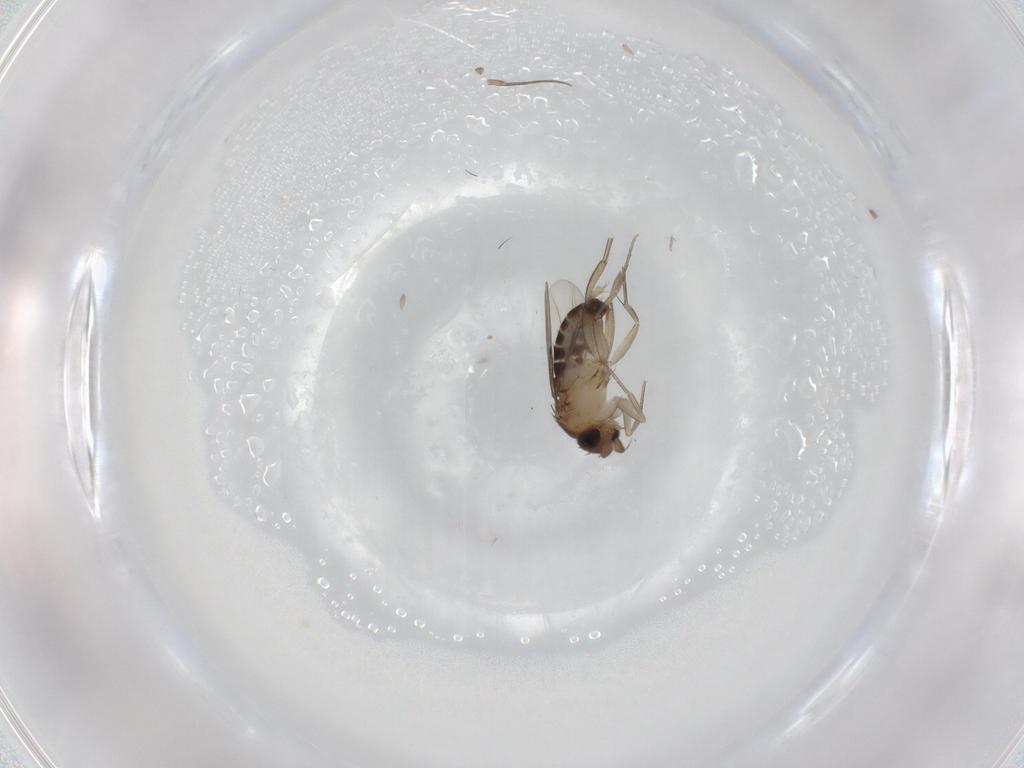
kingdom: Animalia
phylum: Arthropoda
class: Insecta
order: Diptera
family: Phoridae
